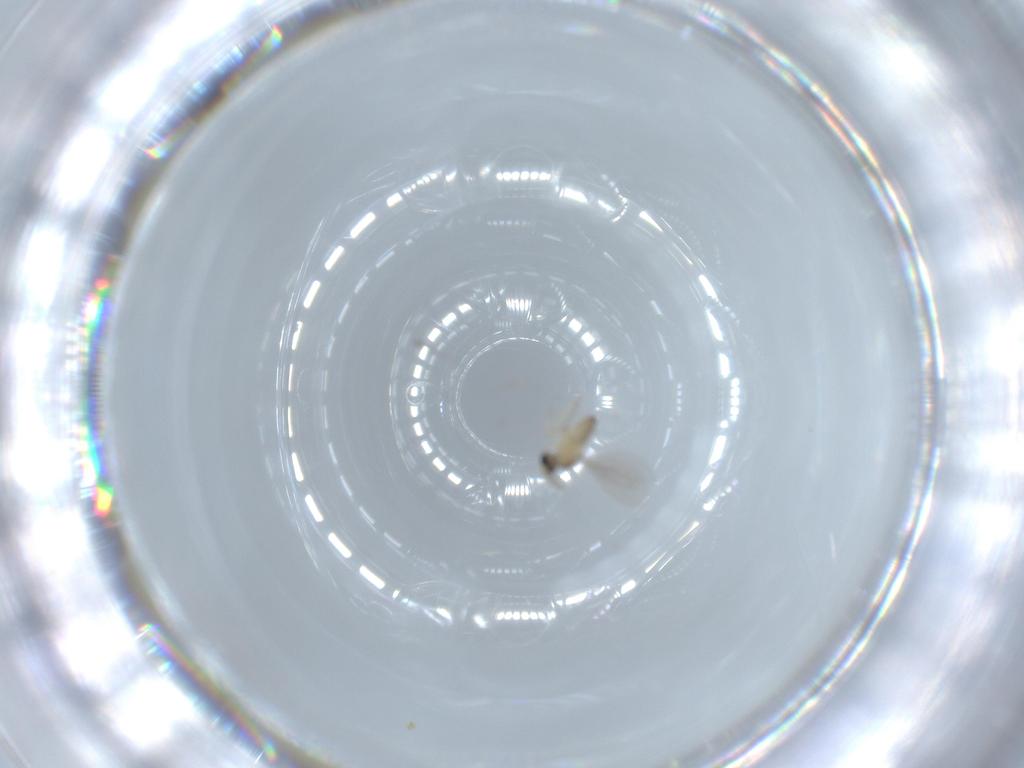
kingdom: Animalia
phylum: Arthropoda
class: Insecta
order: Diptera
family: Cecidomyiidae
